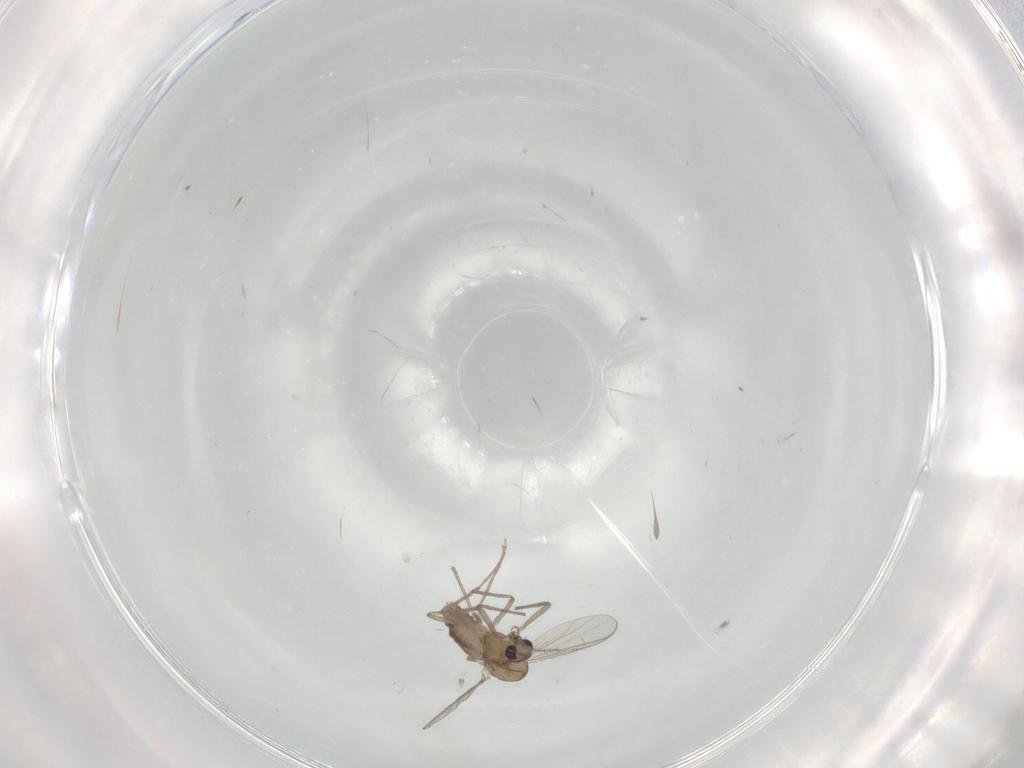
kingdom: Animalia
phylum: Arthropoda
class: Insecta
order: Diptera
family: Chironomidae
